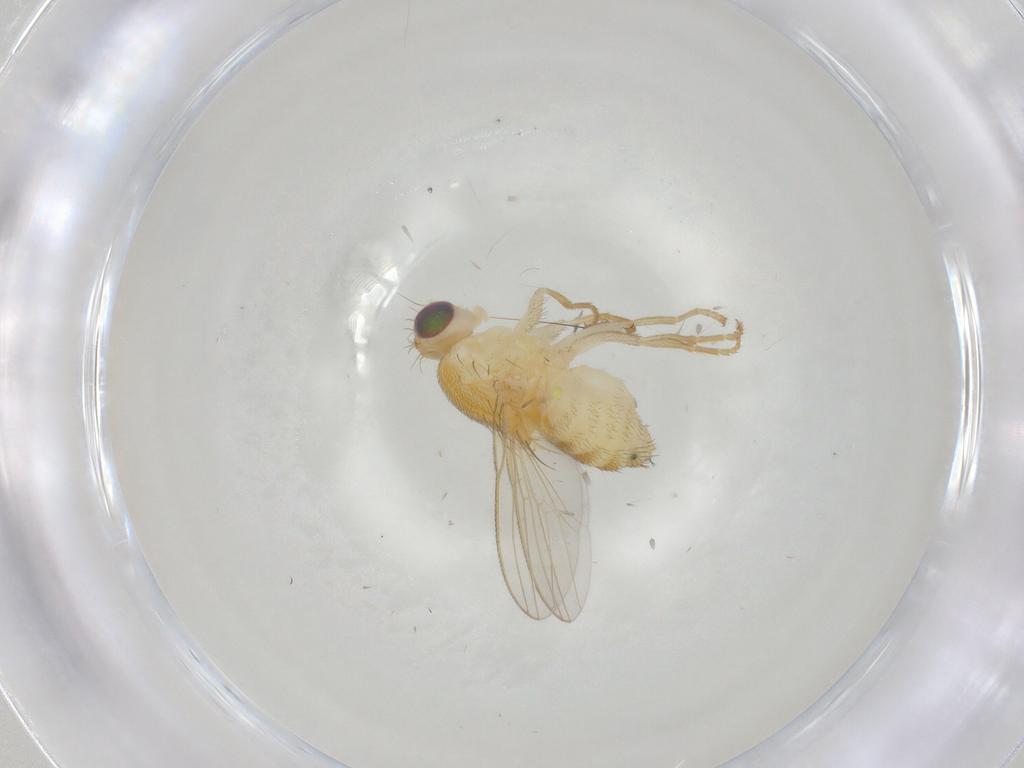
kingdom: Animalia
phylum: Arthropoda
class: Insecta
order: Diptera
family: Chyromyidae
